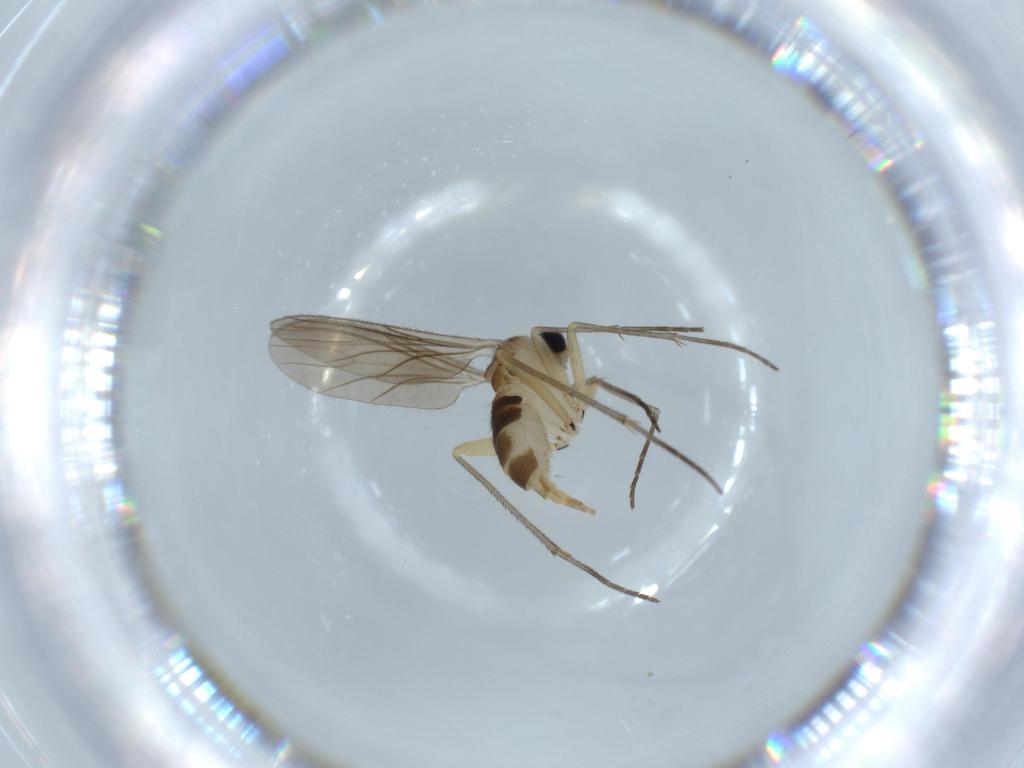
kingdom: Animalia
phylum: Arthropoda
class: Insecta
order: Diptera
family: Sciaridae
